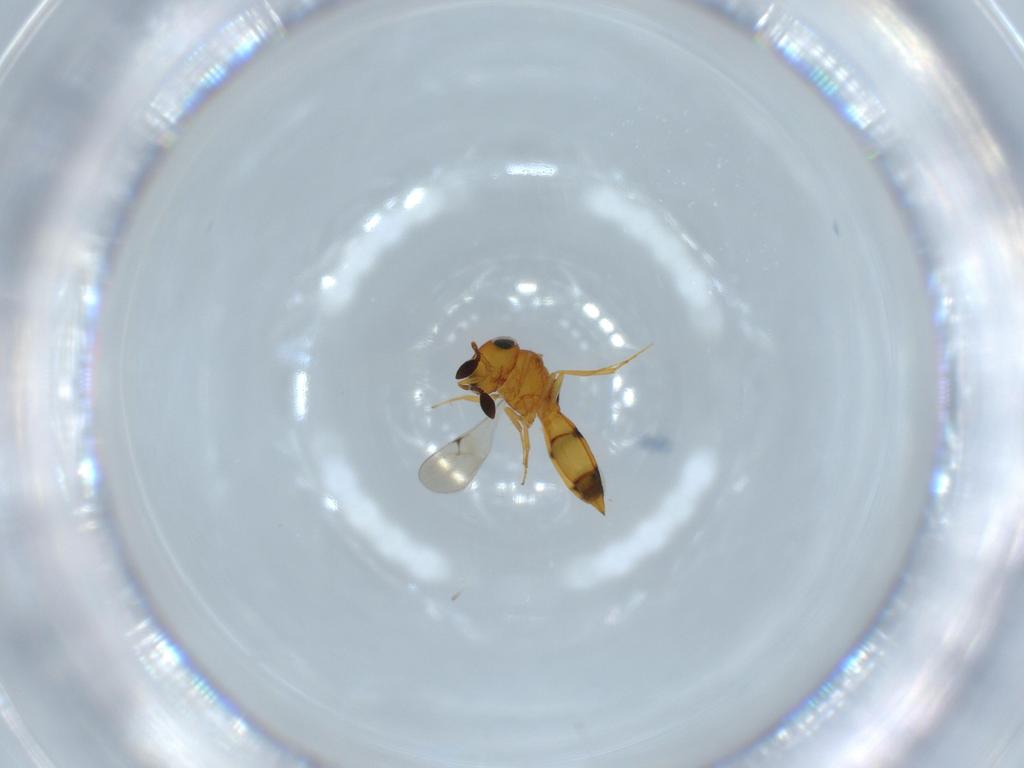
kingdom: Animalia
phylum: Arthropoda
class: Insecta
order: Hymenoptera
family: Scelionidae
